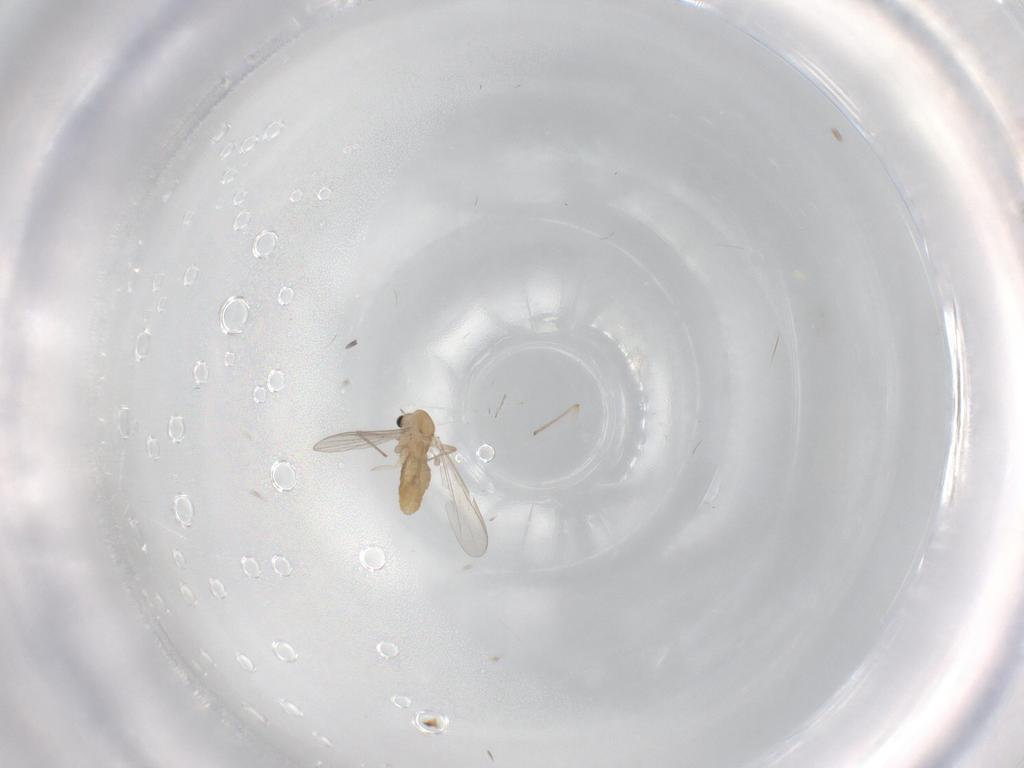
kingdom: Animalia
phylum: Arthropoda
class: Insecta
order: Diptera
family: Chironomidae
